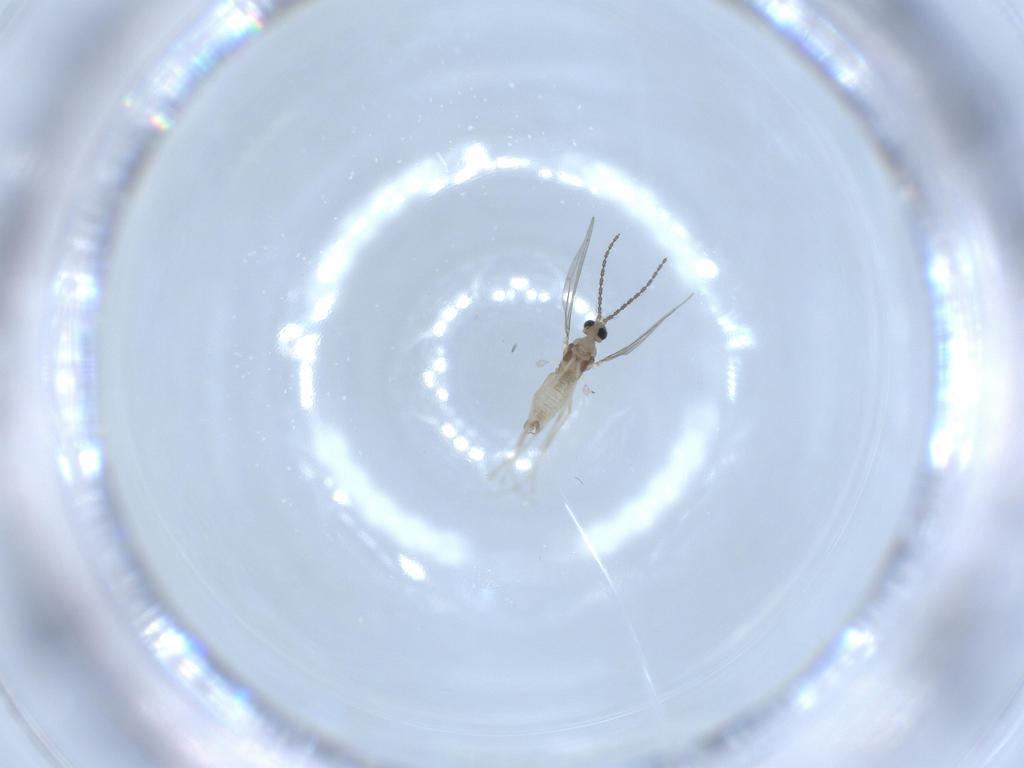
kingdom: Animalia
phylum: Arthropoda
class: Insecta
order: Diptera
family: Cecidomyiidae
